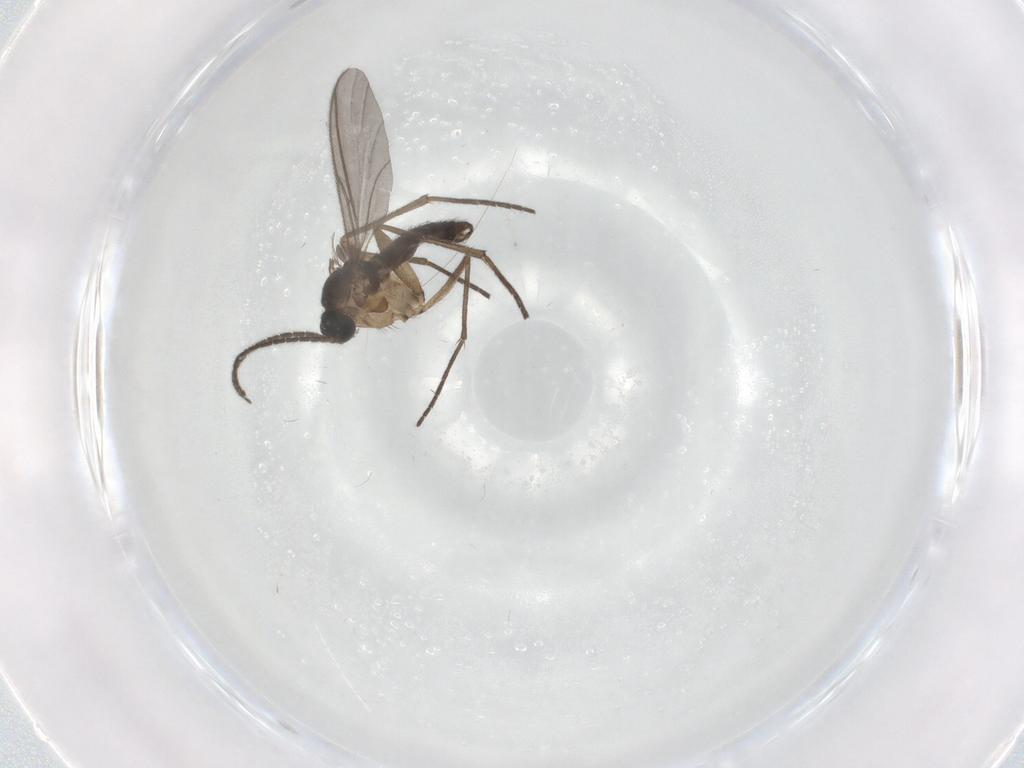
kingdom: Animalia
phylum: Arthropoda
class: Insecta
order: Diptera
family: Sciaridae
